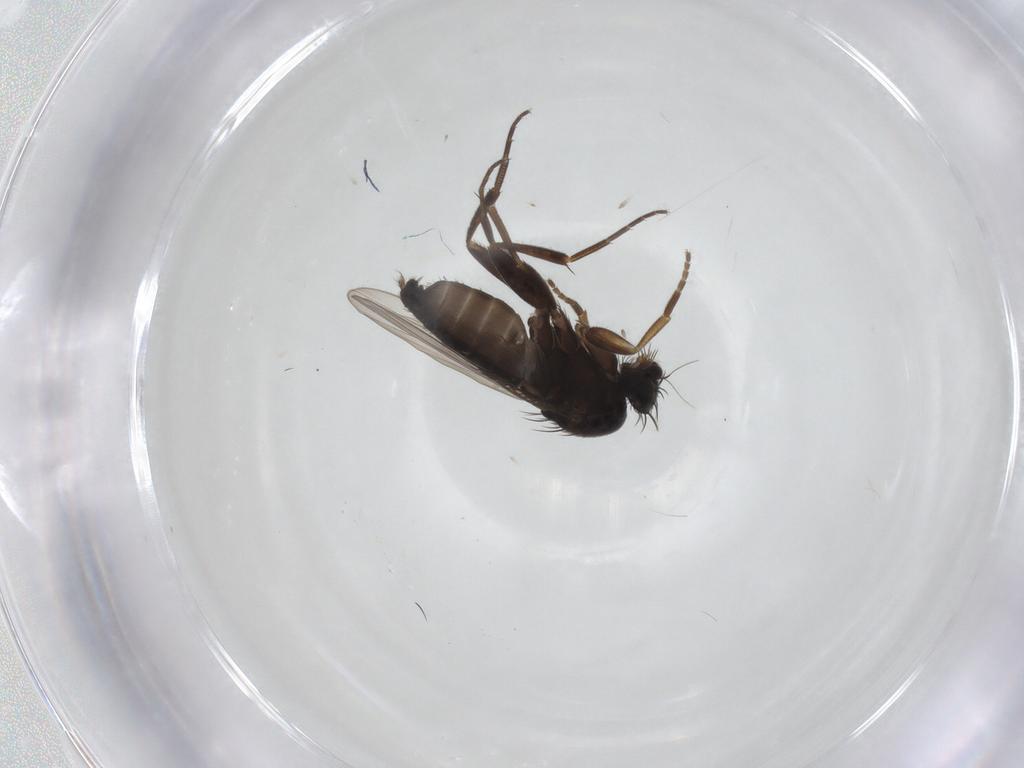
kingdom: Animalia
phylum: Arthropoda
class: Insecta
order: Diptera
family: Phoridae
